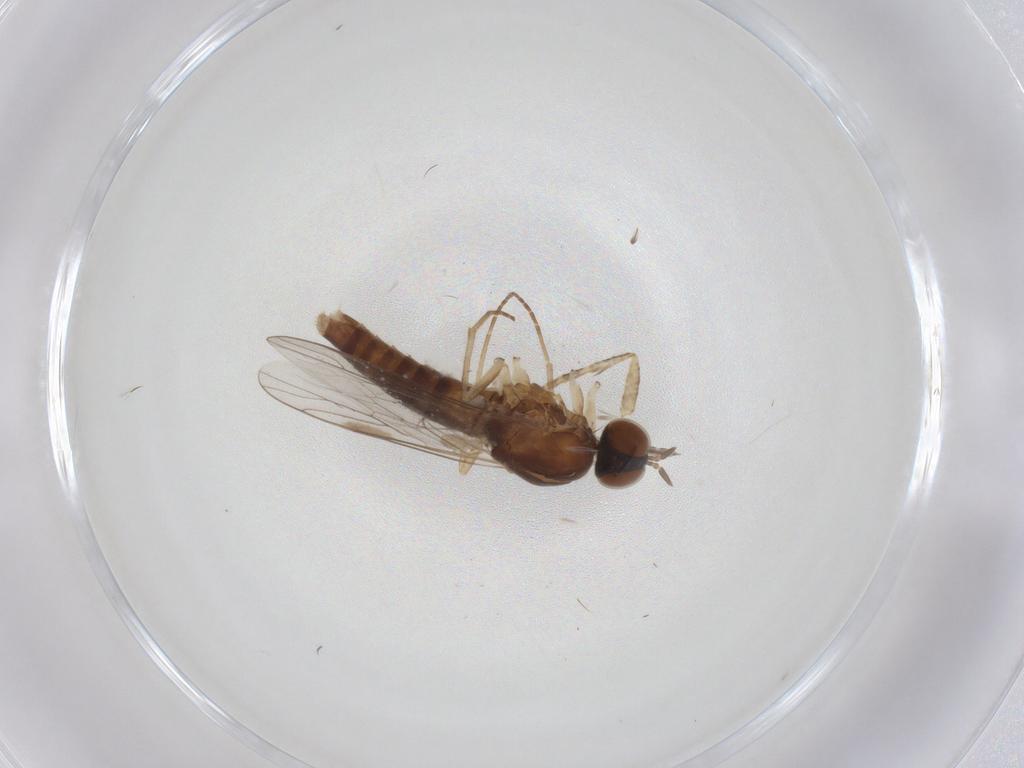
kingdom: Animalia
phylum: Arthropoda
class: Insecta
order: Diptera
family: Scenopinidae
